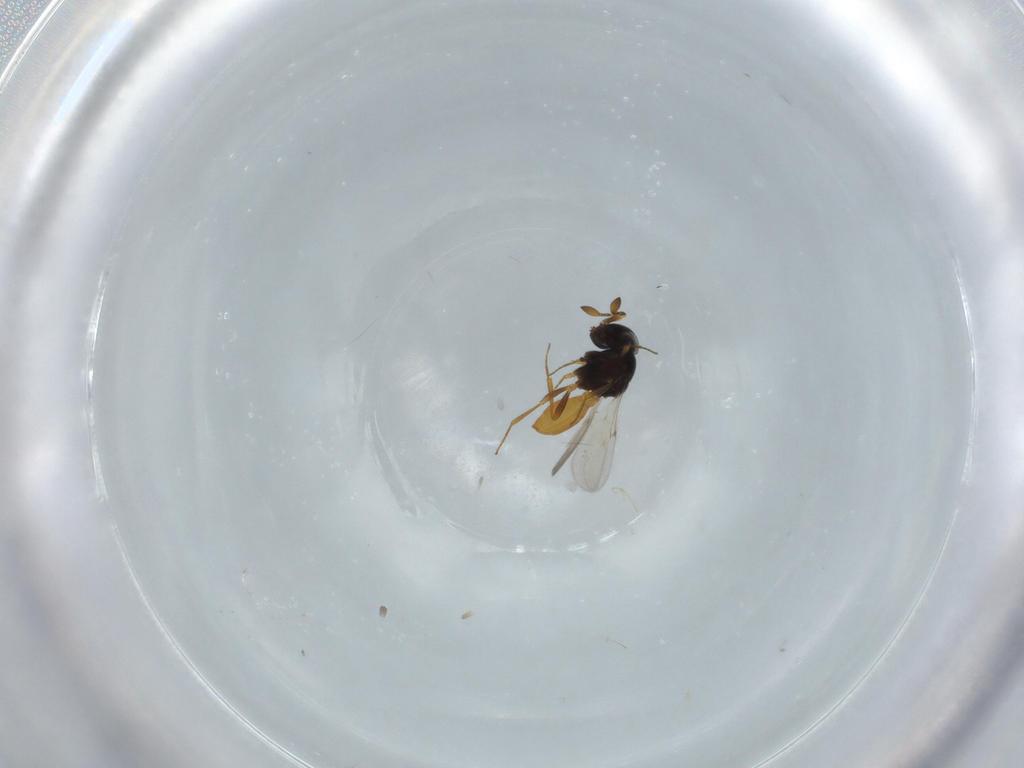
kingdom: Animalia
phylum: Arthropoda
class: Insecta
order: Hymenoptera
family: Scelionidae
